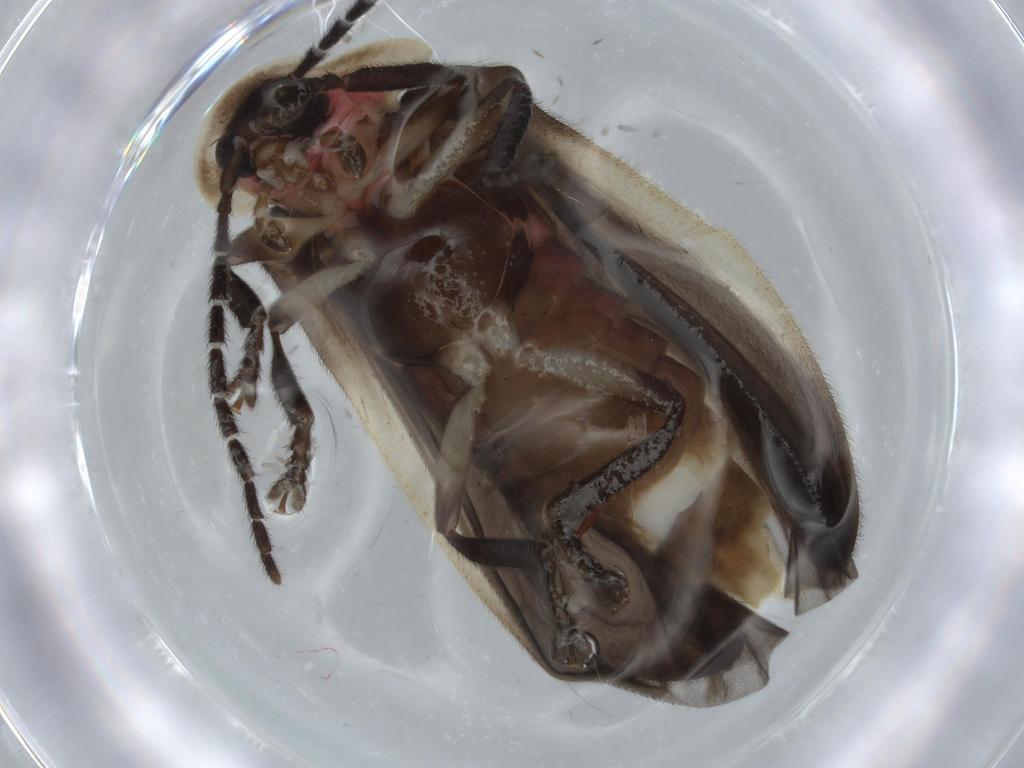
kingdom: Animalia
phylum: Arthropoda
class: Insecta
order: Coleoptera
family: Lampyridae
